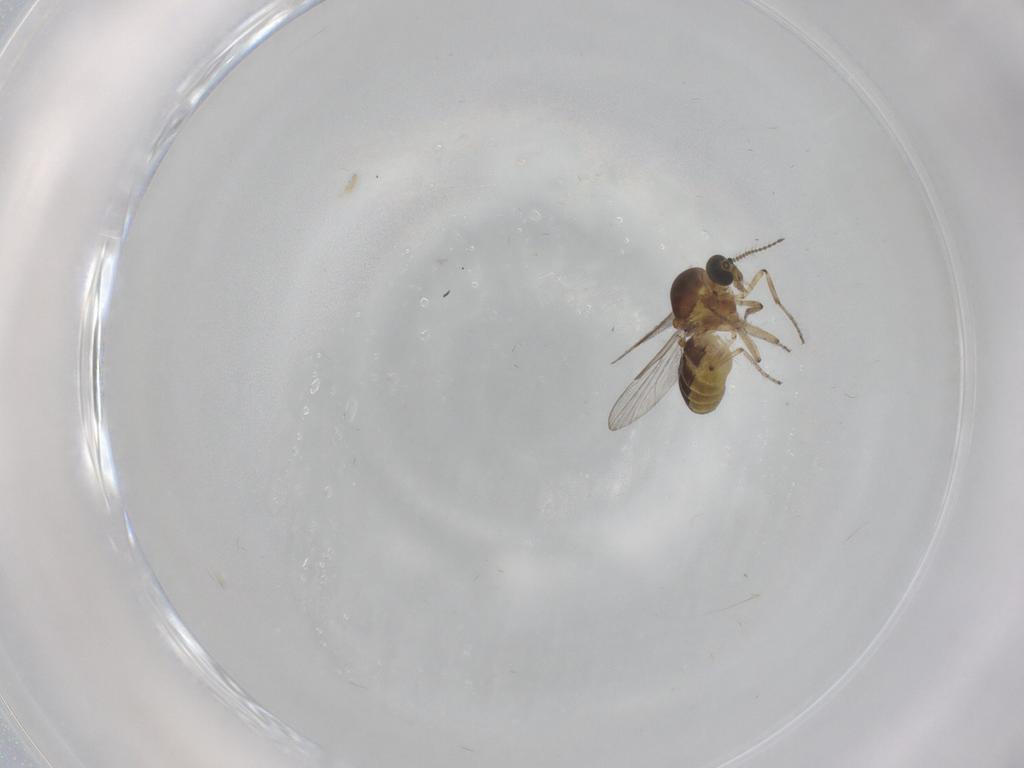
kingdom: Animalia
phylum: Arthropoda
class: Insecta
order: Diptera
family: Ceratopogonidae
